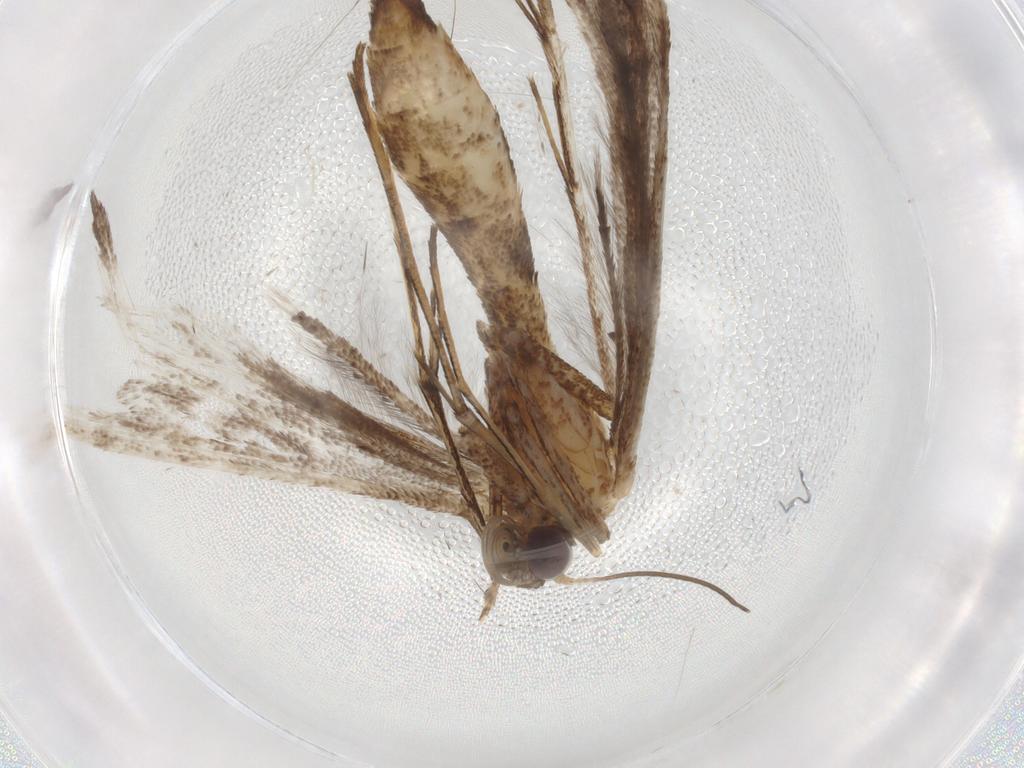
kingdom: Animalia
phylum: Arthropoda
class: Insecta
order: Lepidoptera
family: Pterophoridae
